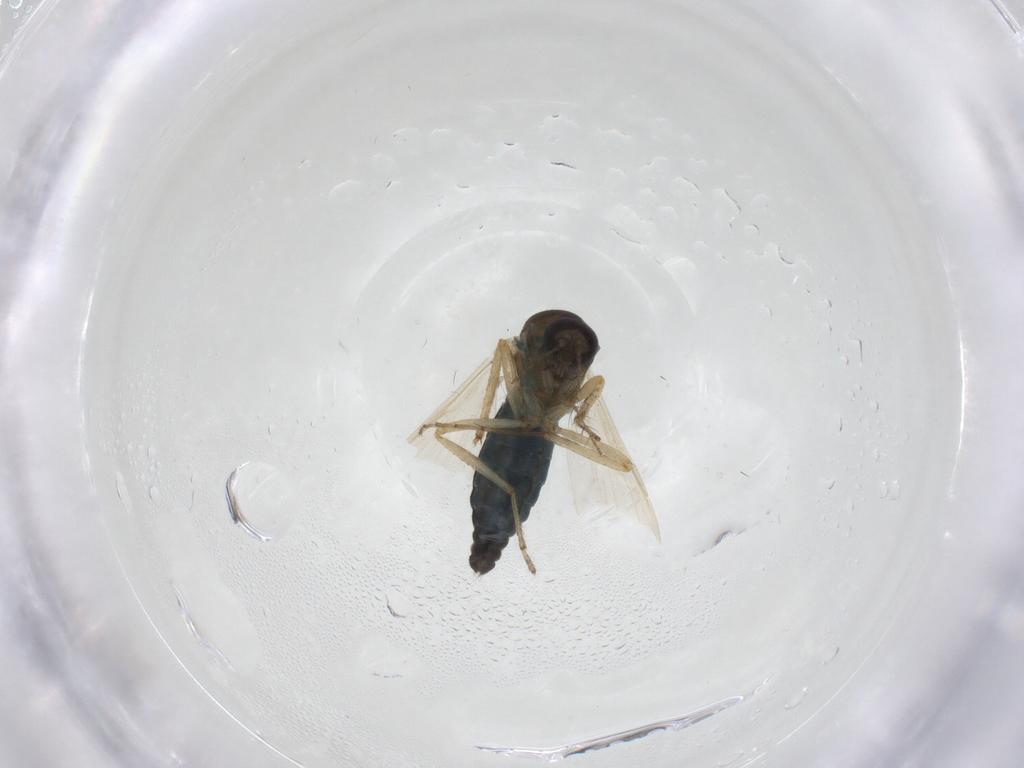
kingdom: Animalia
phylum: Arthropoda
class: Insecta
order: Diptera
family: Ceratopogonidae
